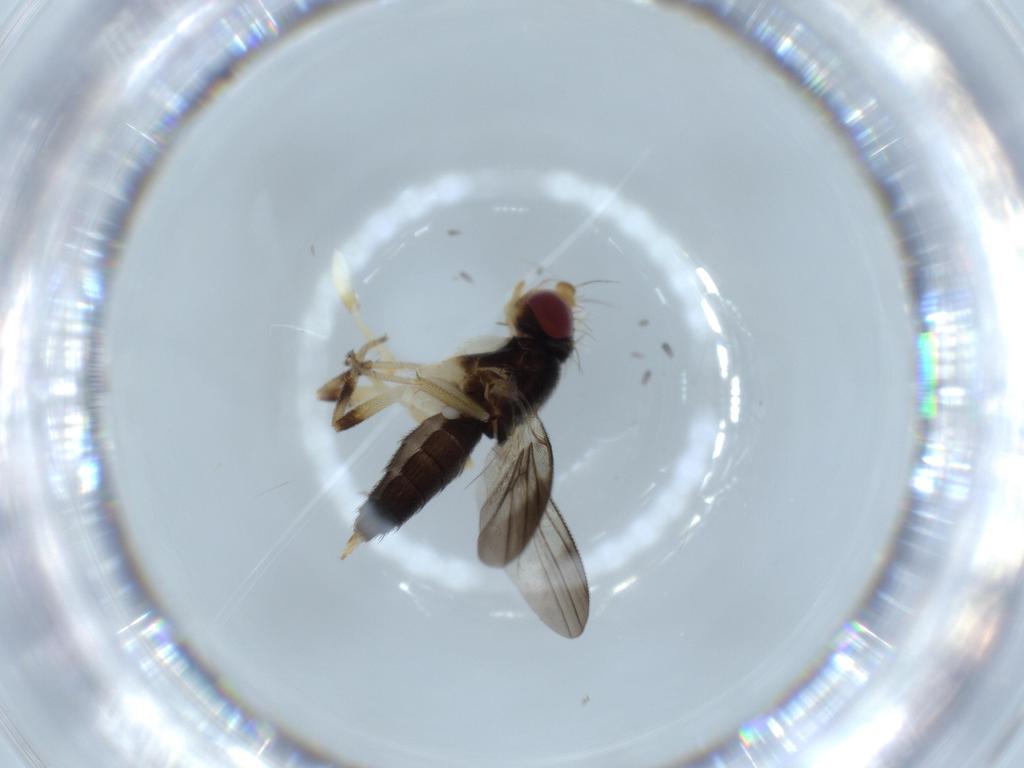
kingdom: Animalia
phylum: Arthropoda
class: Insecta
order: Diptera
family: Clusiidae
